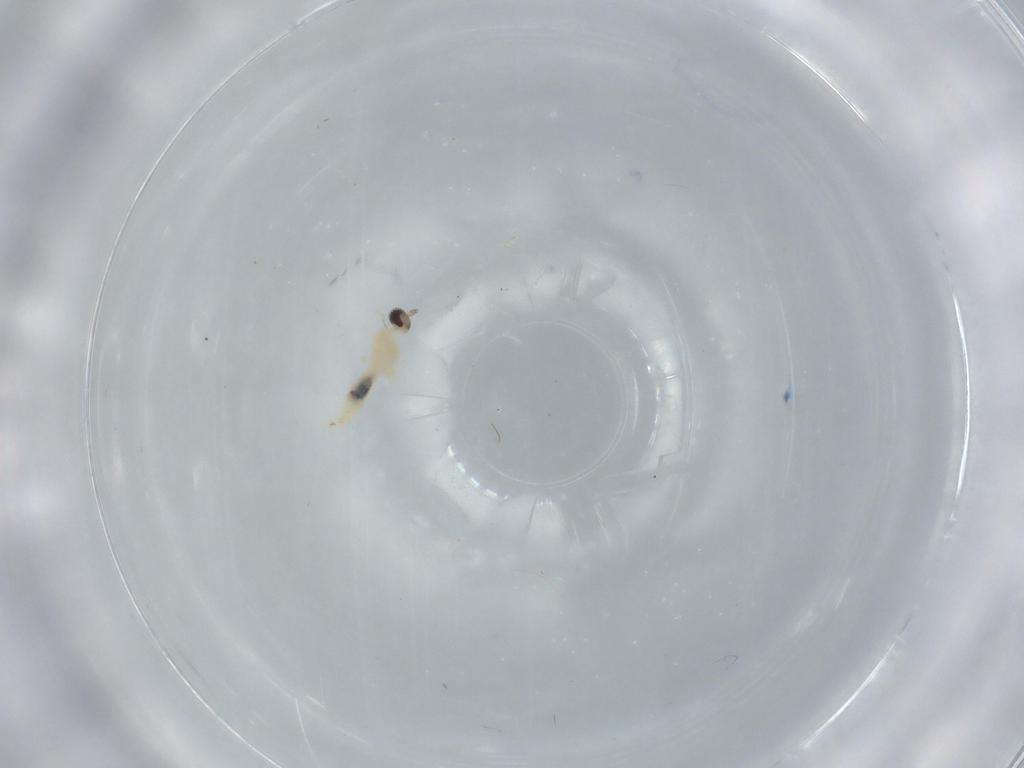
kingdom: Animalia
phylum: Arthropoda
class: Insecta
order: Diptera
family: Cecidomyiidae
